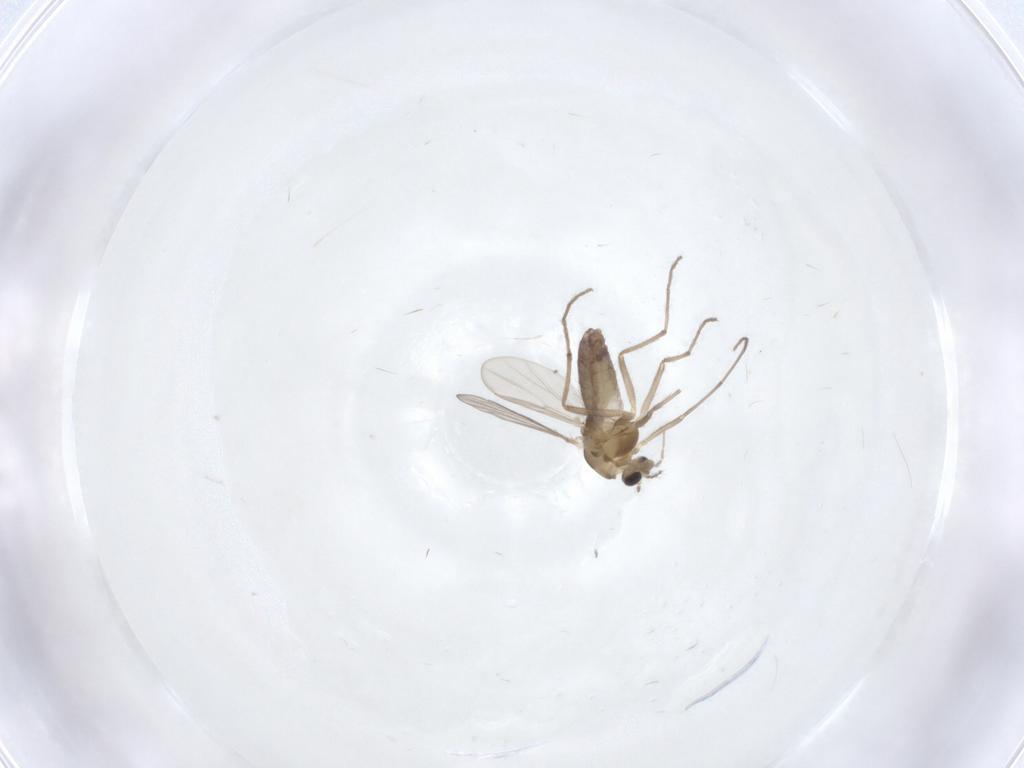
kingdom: Animalia
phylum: Arthropoda
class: Insecta
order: Diptera
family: Chironomidae
